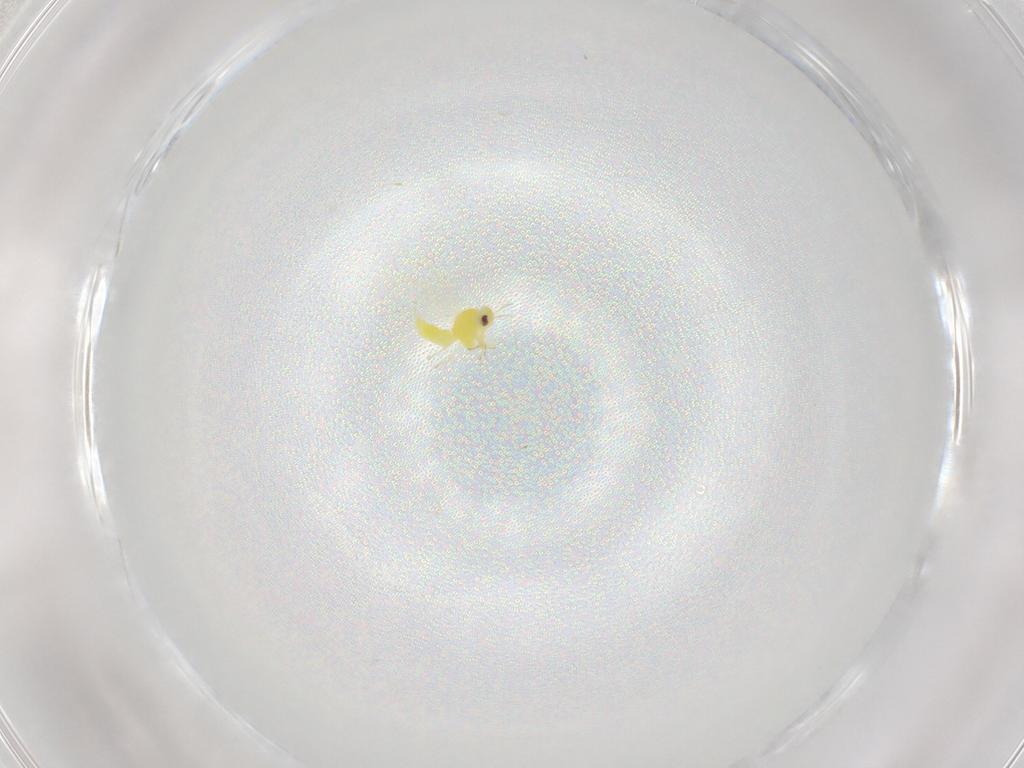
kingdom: Animalia
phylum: Arthropoda
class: Insecta
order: Hemiptera
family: Aleyrodidae
